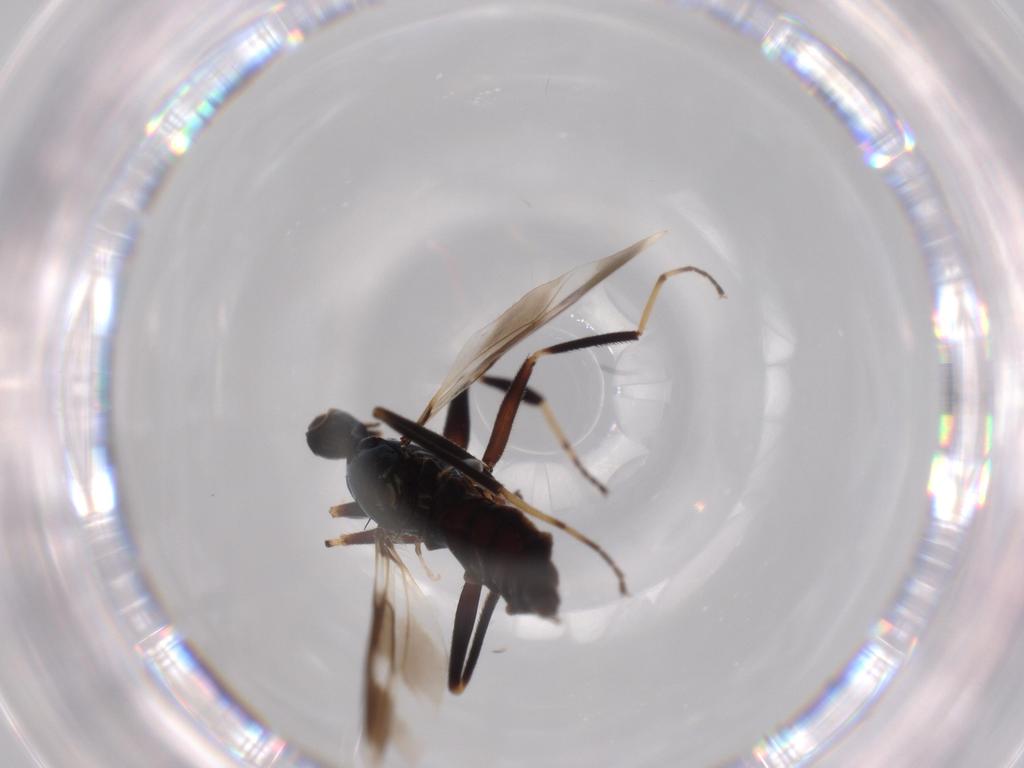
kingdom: Animalia
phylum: Arthropoda
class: Insecta
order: Diptera
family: Hybotidae
